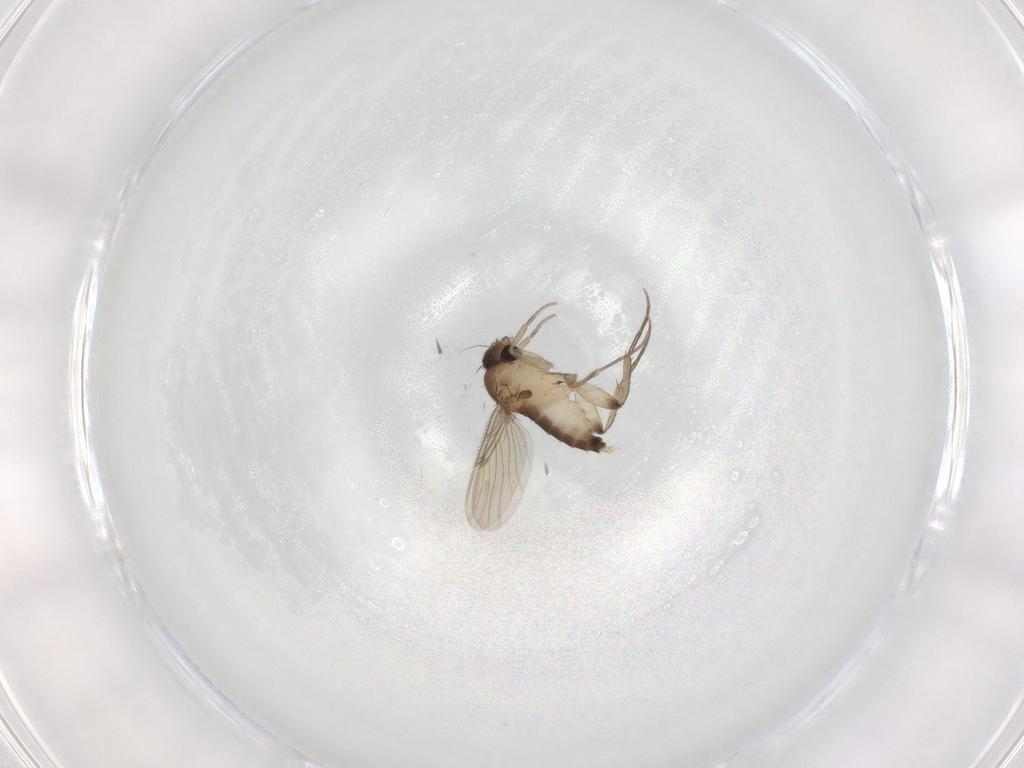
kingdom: Animalia
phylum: Arthropoda
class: Insecta
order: Diptera
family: Phoridae
